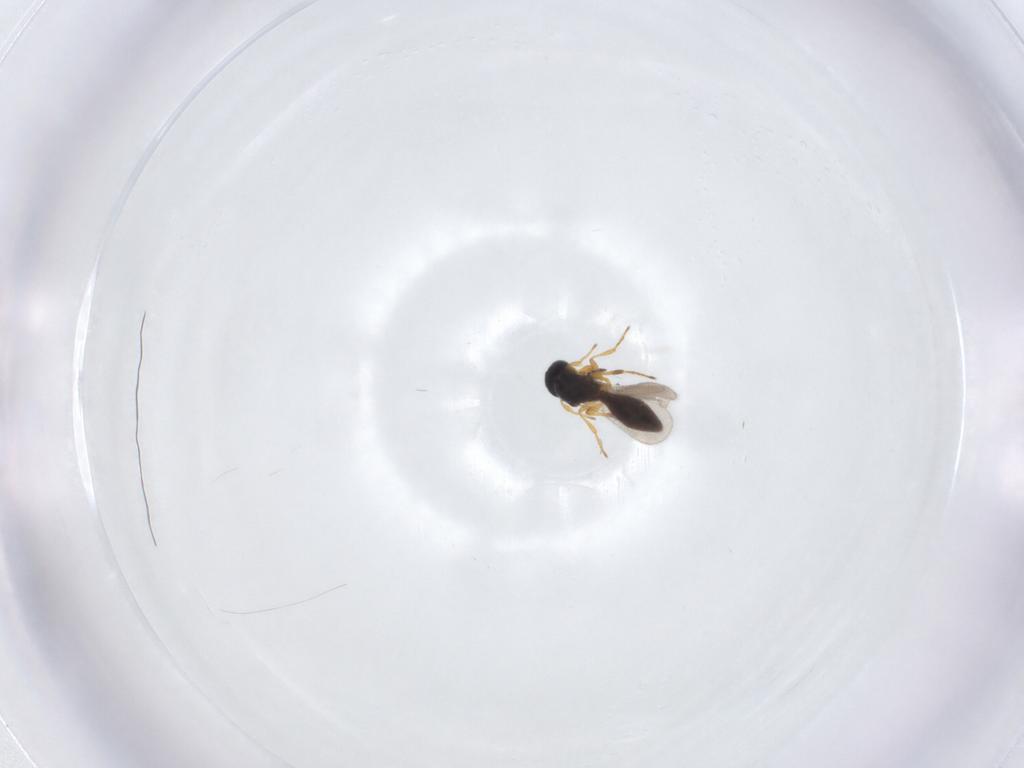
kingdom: Animalia
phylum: Arthropoda
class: Insecta
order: Hymenoptera
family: Platygastridae
